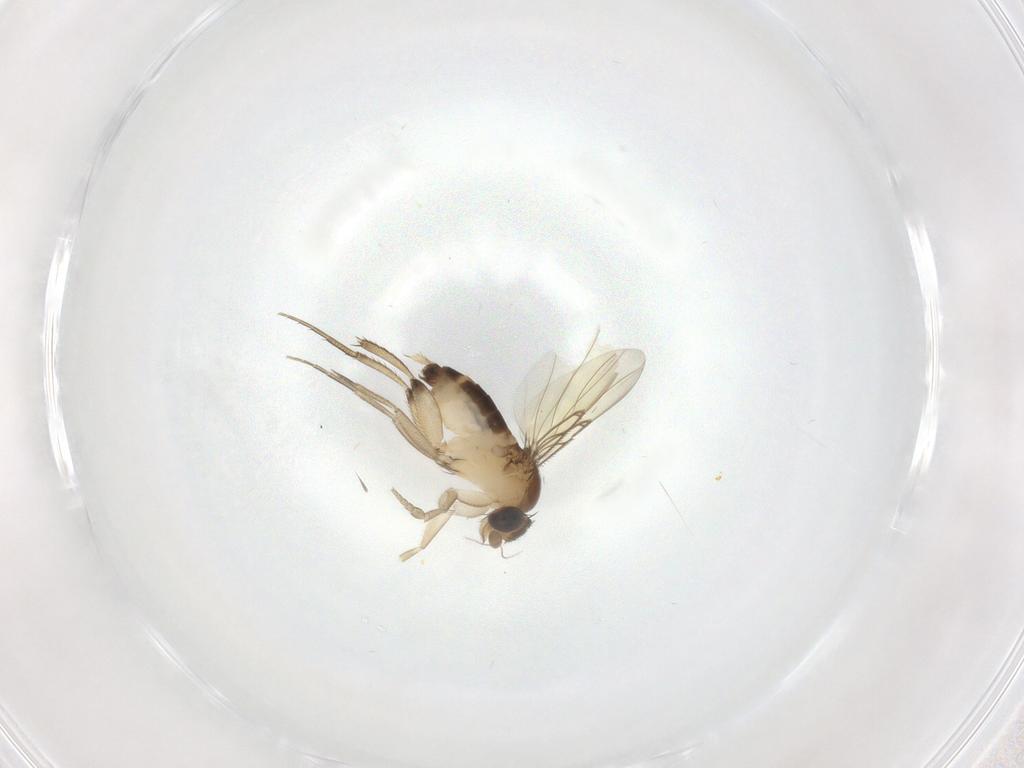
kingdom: Animalia
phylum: Arthropoda
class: Insecta
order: Diptera
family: Phoridae
